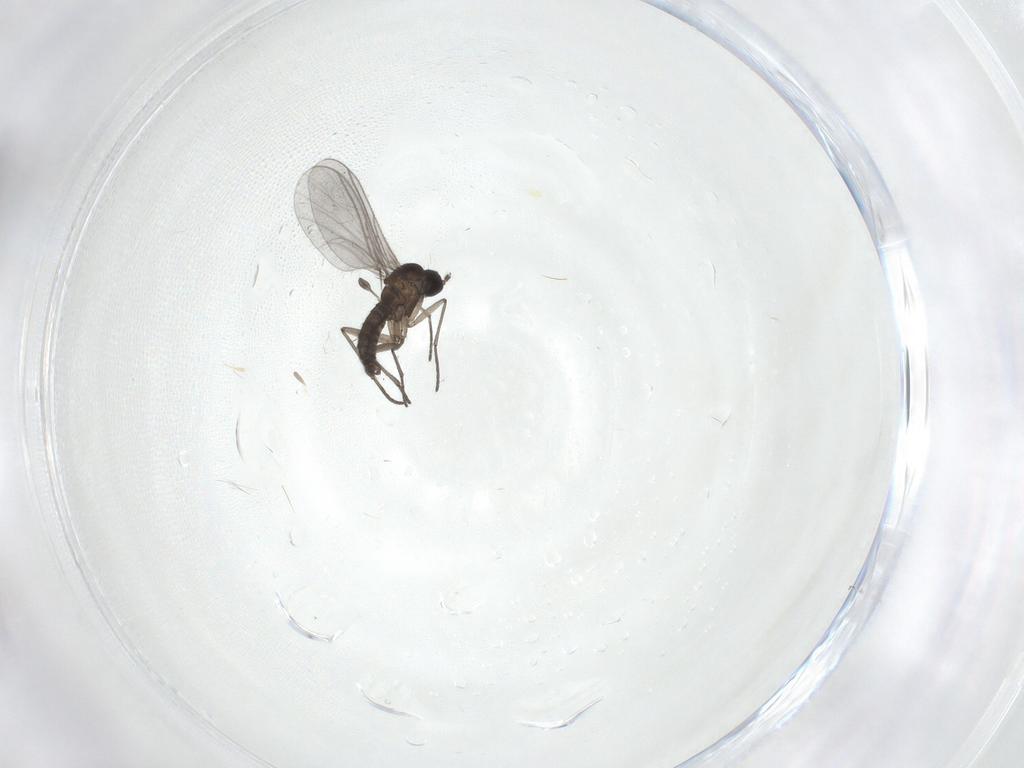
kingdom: Animalia
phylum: Arthropoda
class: Insecta
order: Diptera
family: Sciaridae
